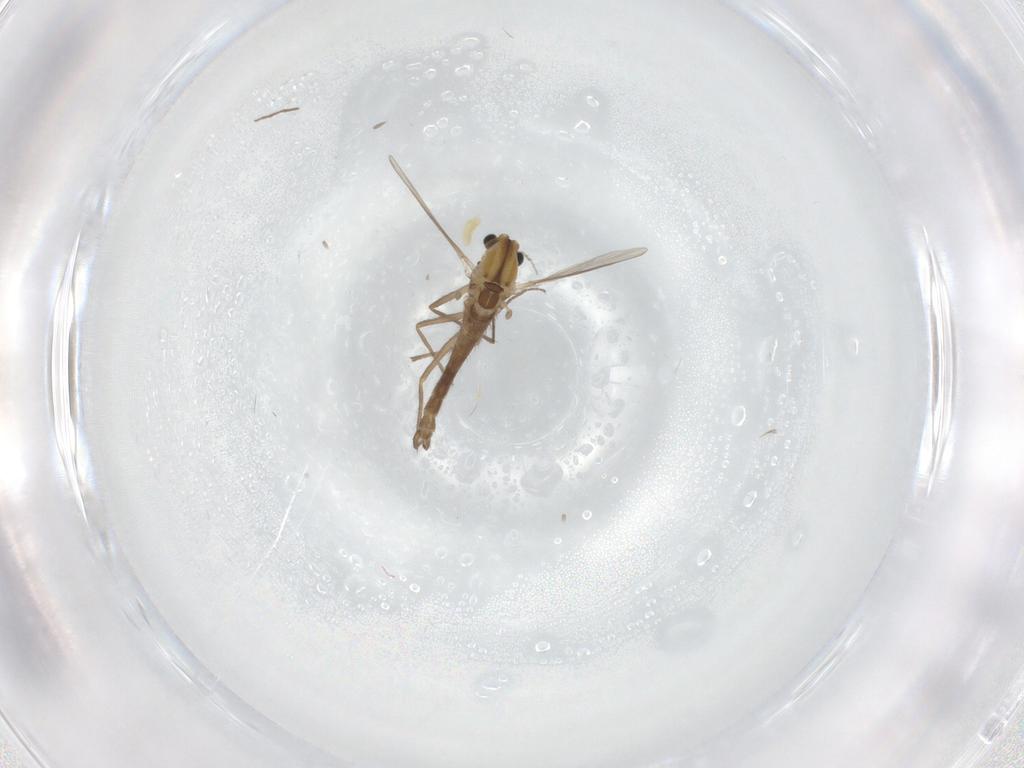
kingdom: Animalia
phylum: Arthropoda
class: Insecta
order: Diptera
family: Chironomidae
